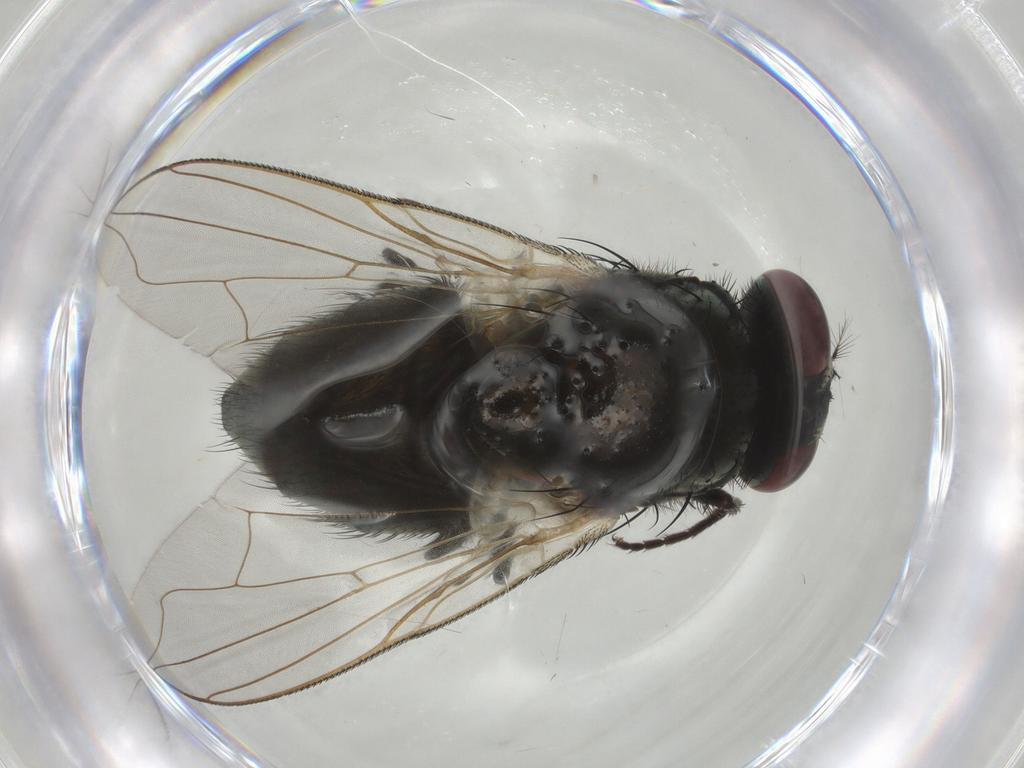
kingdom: Animalia
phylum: Arthropoda
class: Insecta
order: Diptera
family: Muscidae
